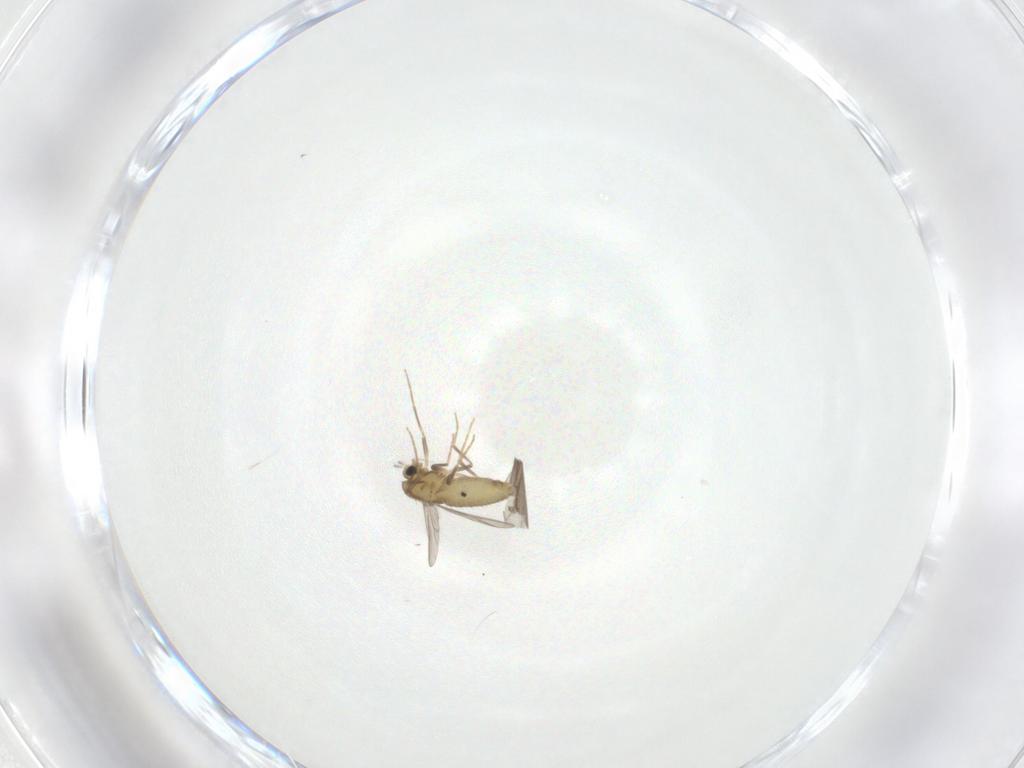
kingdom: Animalia
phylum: Arthropoda
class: Insecta
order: Diptera
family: Chironomidae
